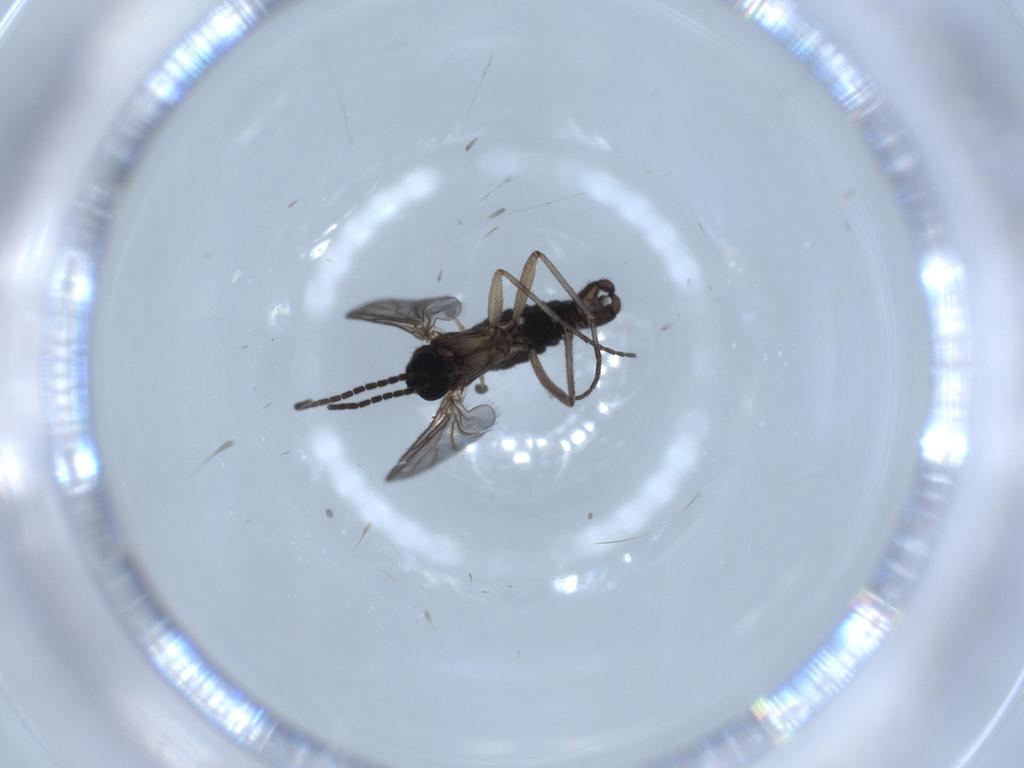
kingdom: Animalia
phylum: Arthropoda
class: Insecta
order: Diptera
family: Sciaridae
